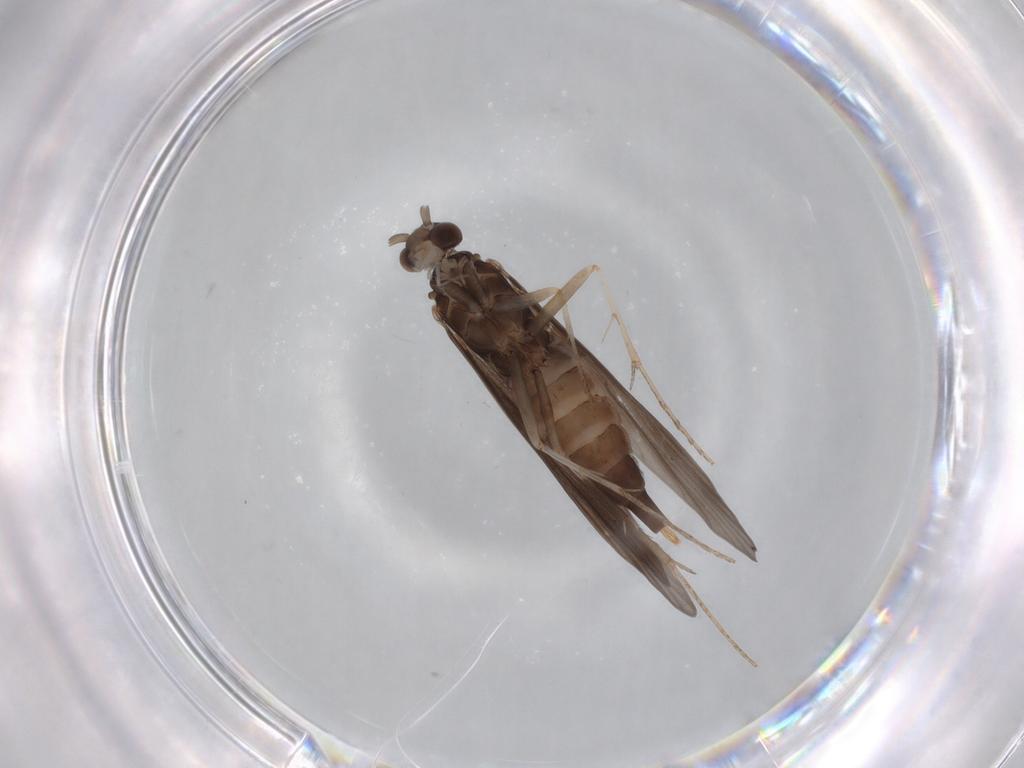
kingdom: Animalia
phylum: Arthropoda
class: Insecta
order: Trichoptera
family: Xiphocentronidae
